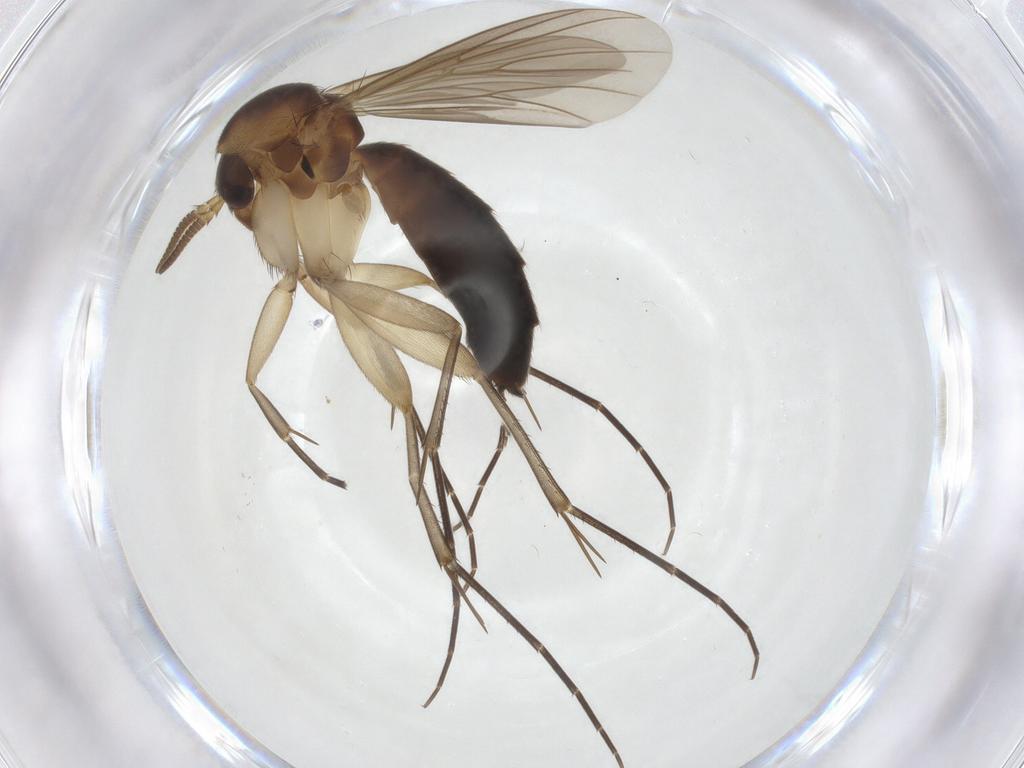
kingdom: Animalia
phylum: Arthropoda
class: Insecta
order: Diptera
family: Mycetophilidae
